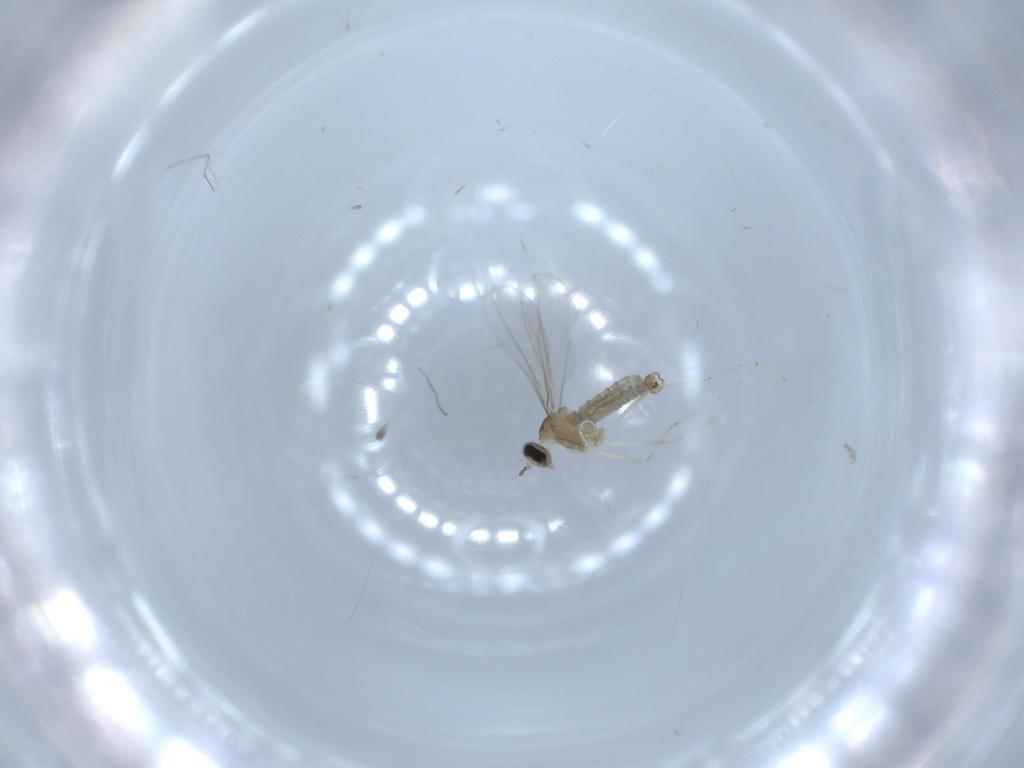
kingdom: Animalia
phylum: Arthropoda
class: Insecta
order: Diptera
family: Cecidomyiidae
